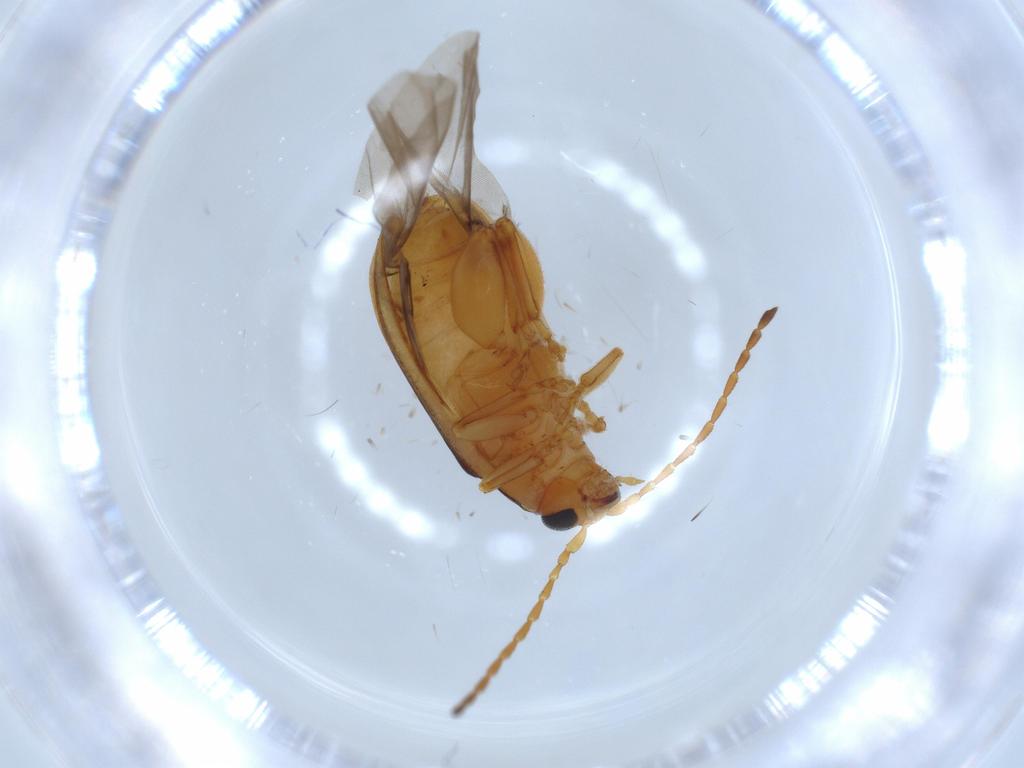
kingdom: Animalia
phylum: Arthropoda
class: Insecta
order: Coleoptera
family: Chrysomelidae
